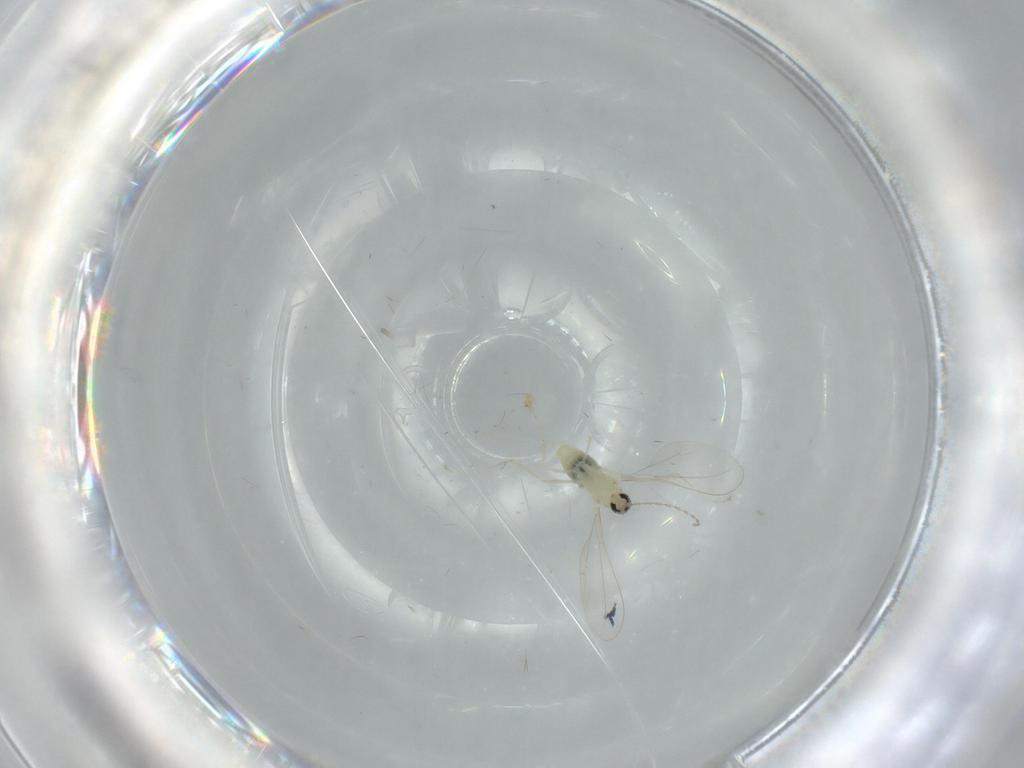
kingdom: Animalia
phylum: Arthropoda
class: Insecta
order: Diptera
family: Cecidomyiidae
